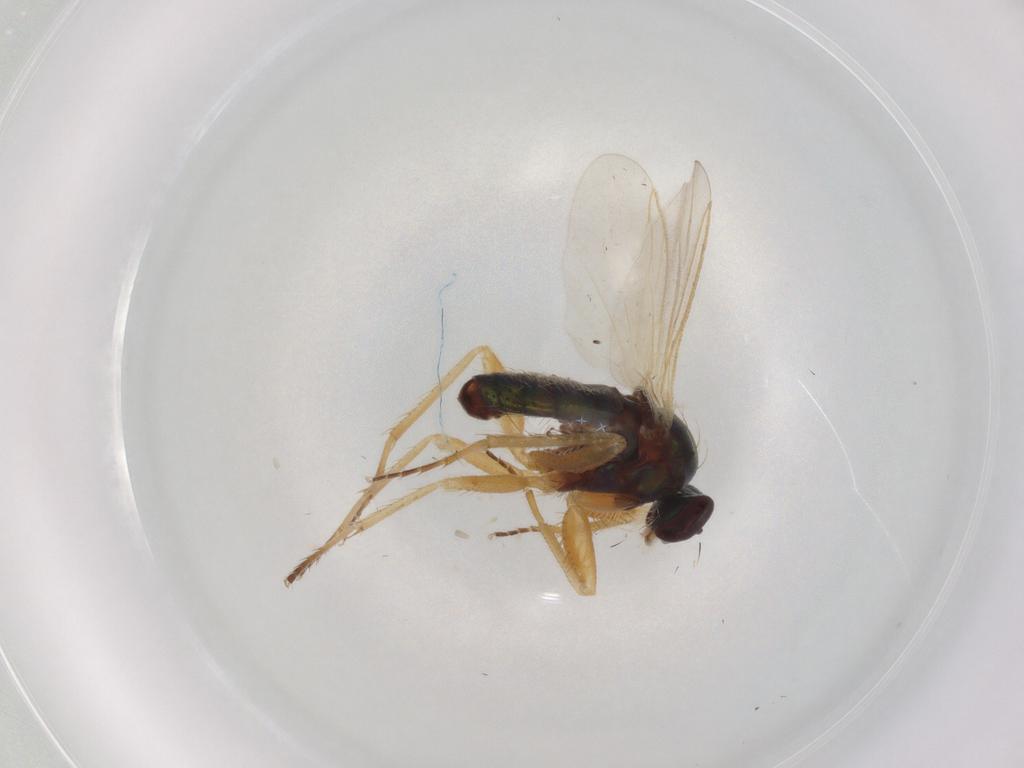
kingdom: Animalia
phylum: Arthropoda
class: Insecta
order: Diptera
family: Dolichopodidae
